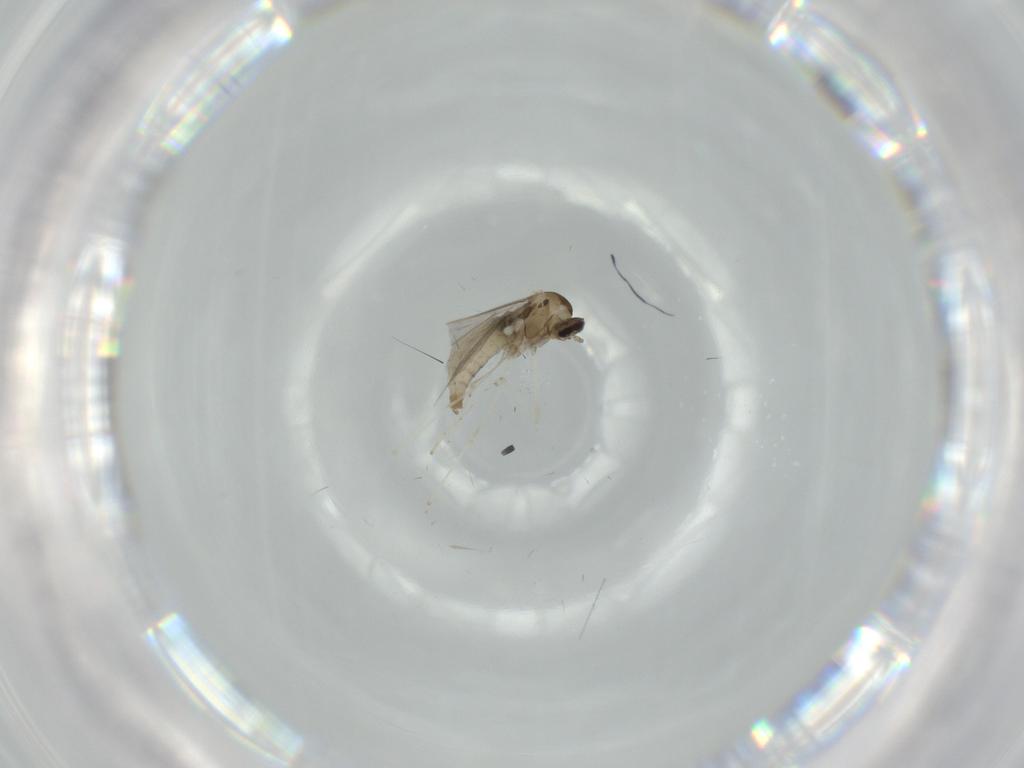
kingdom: Animalia
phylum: Arthropoda
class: Insecta
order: Diptera
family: Cecidomyiidae
